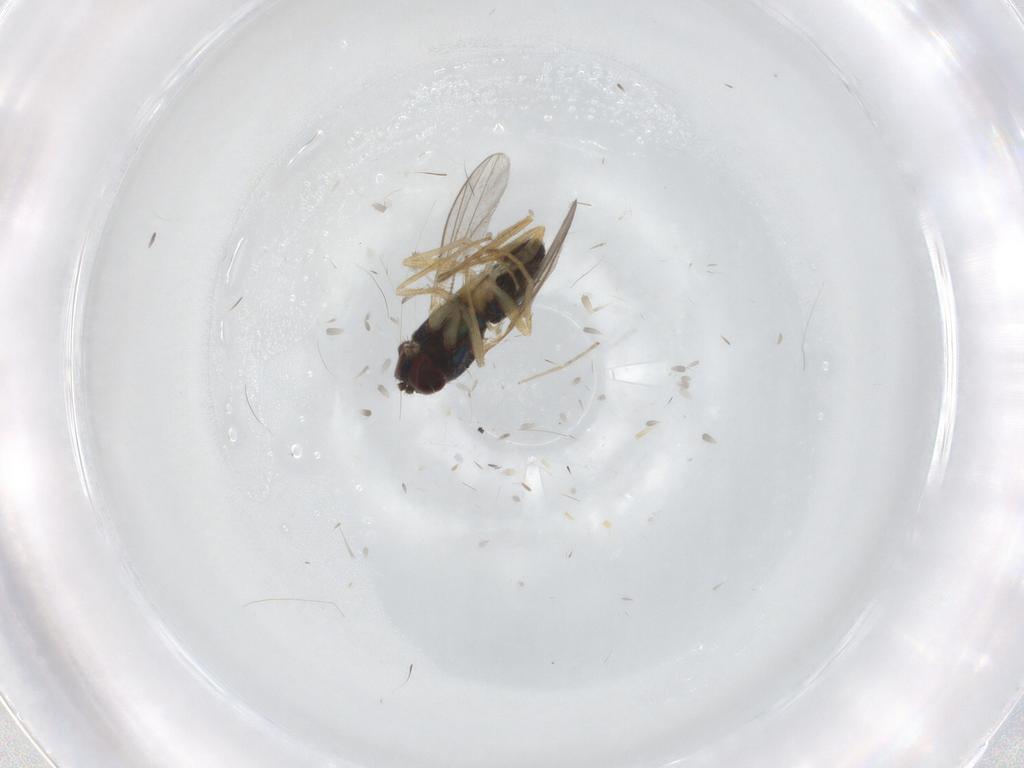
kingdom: Animalia
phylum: Arthropoda
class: Insecta
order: Diptera
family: Dolichopodidae
